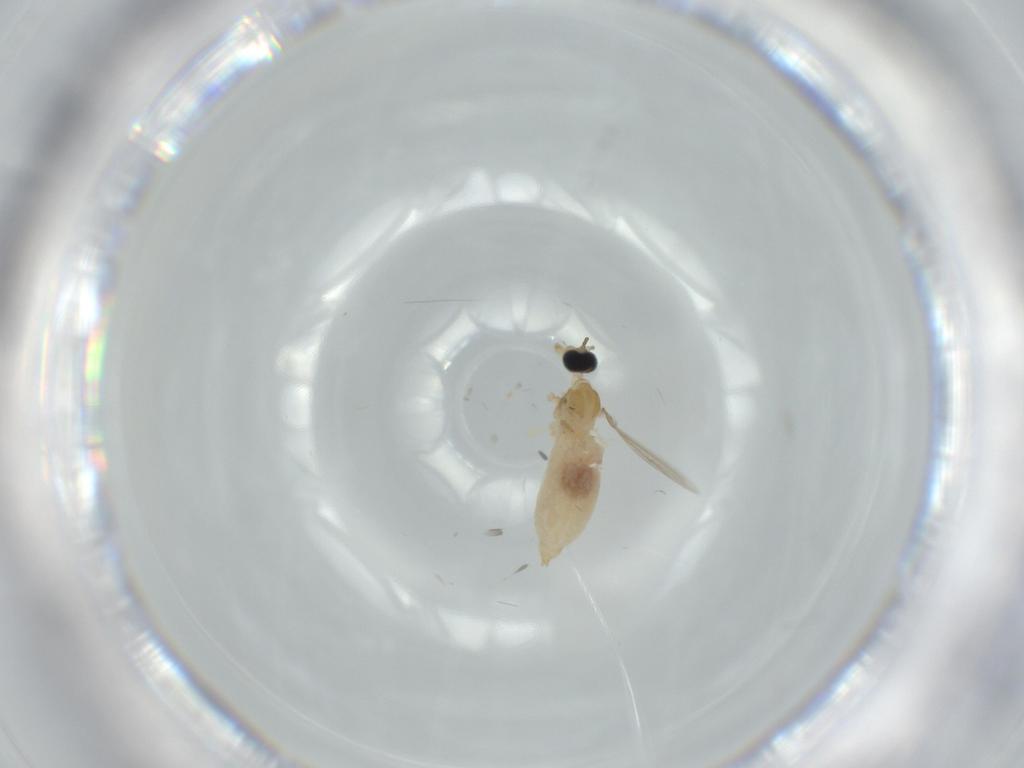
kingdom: Animalia
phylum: Arthropoda
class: Insecta
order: Diptera
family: Cecidomyiidae
